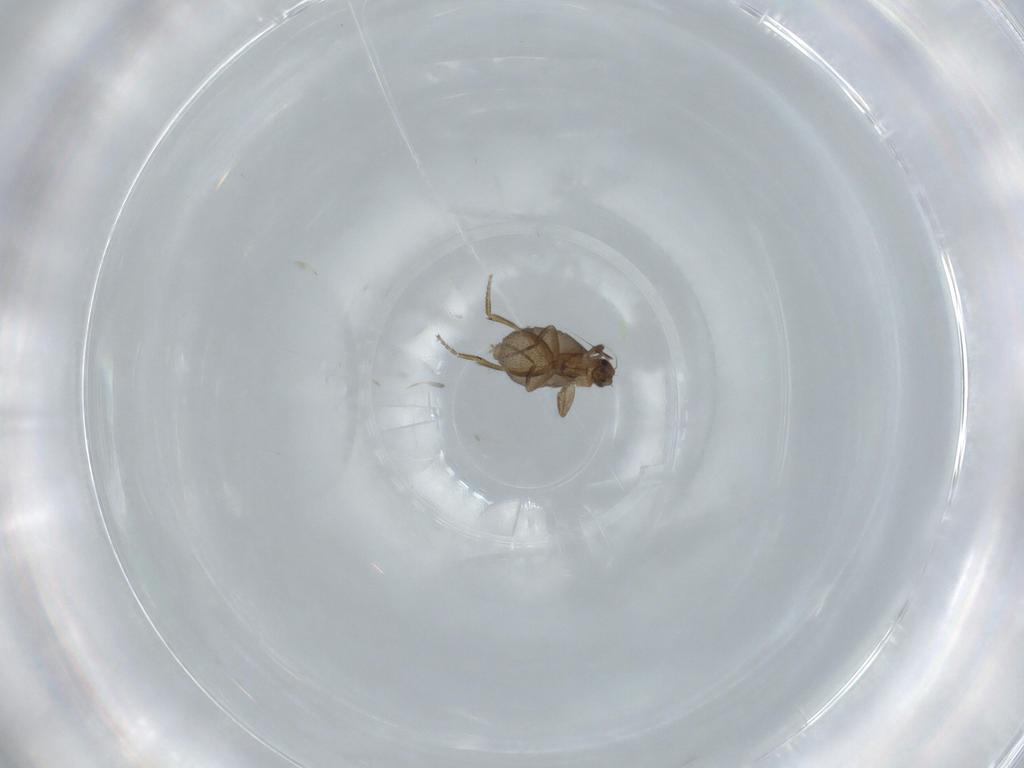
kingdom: Animalia
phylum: Arthropoda
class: Insecta
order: Diptera
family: Phoridae
